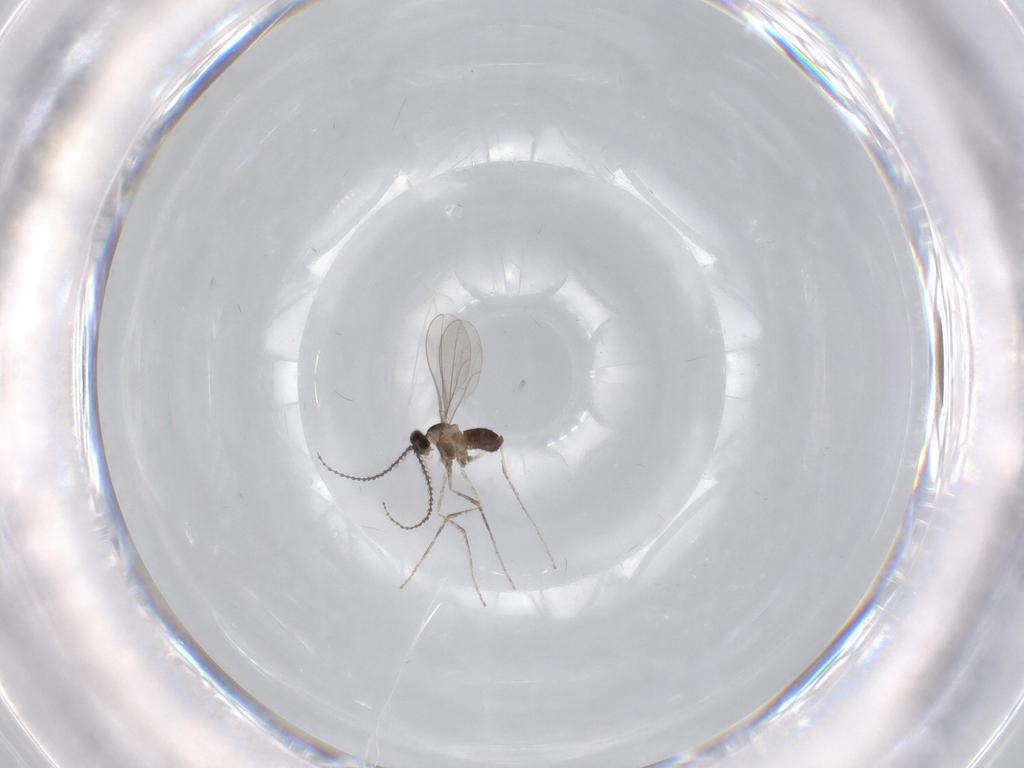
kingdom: Animalia
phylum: Arthropoda
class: Insecta
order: Diptera
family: Cecidomyiidae
